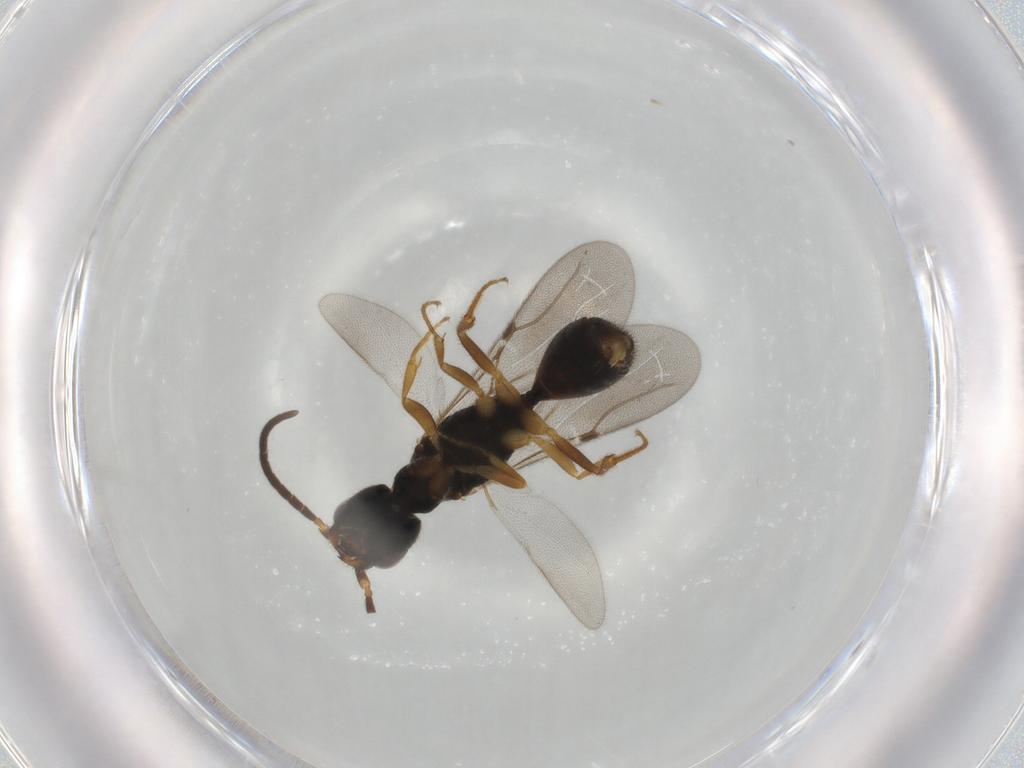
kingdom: Animalia
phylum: Arthropoda
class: Insecta
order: Hymenoptera
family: Bethylidae
